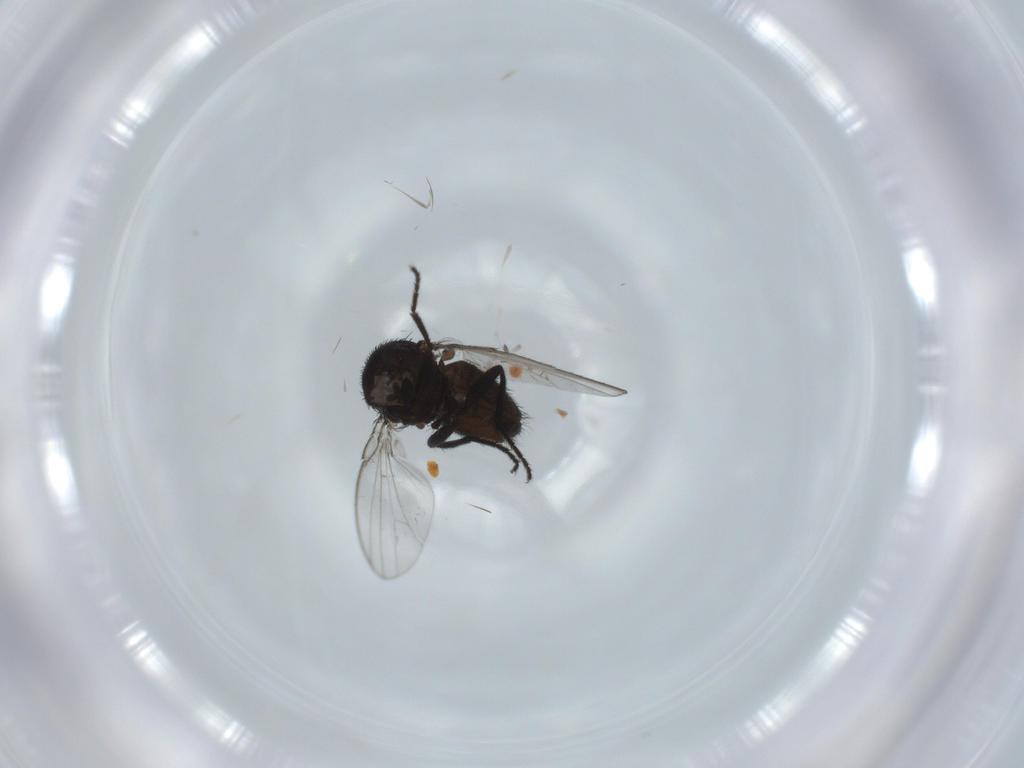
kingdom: Animalia
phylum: Arthropoda
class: Insecta
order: Diptera
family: Milichiidae
